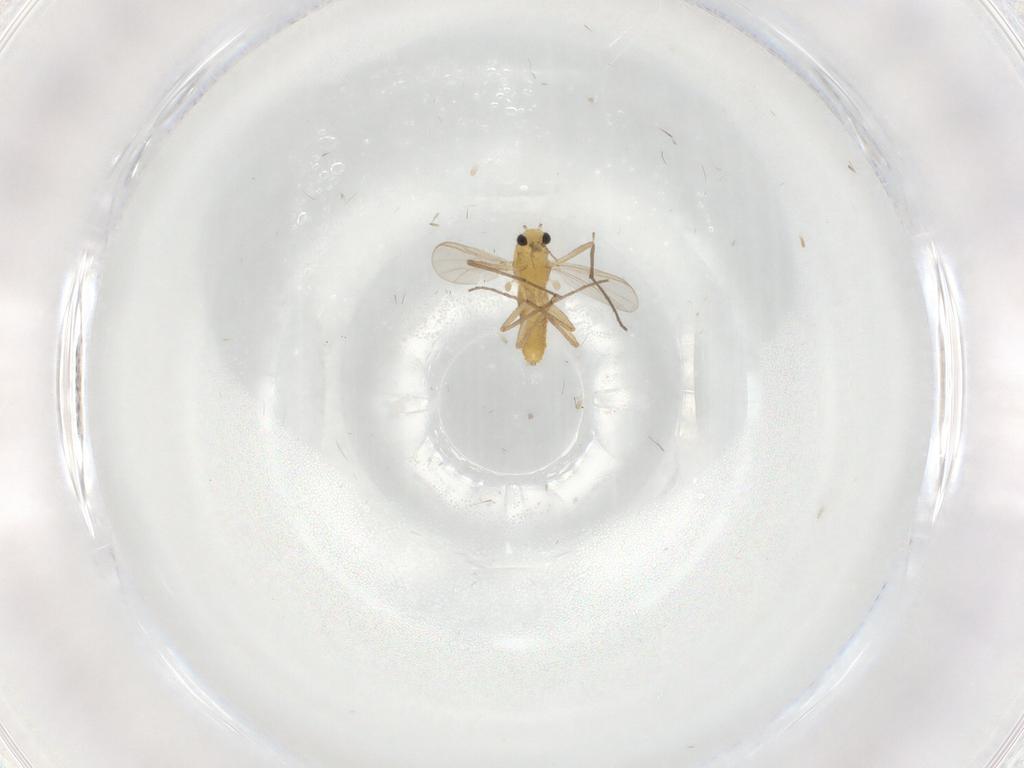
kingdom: Animalia
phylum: Arthropoda
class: Insecta
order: Diptera
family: Chironomidae
